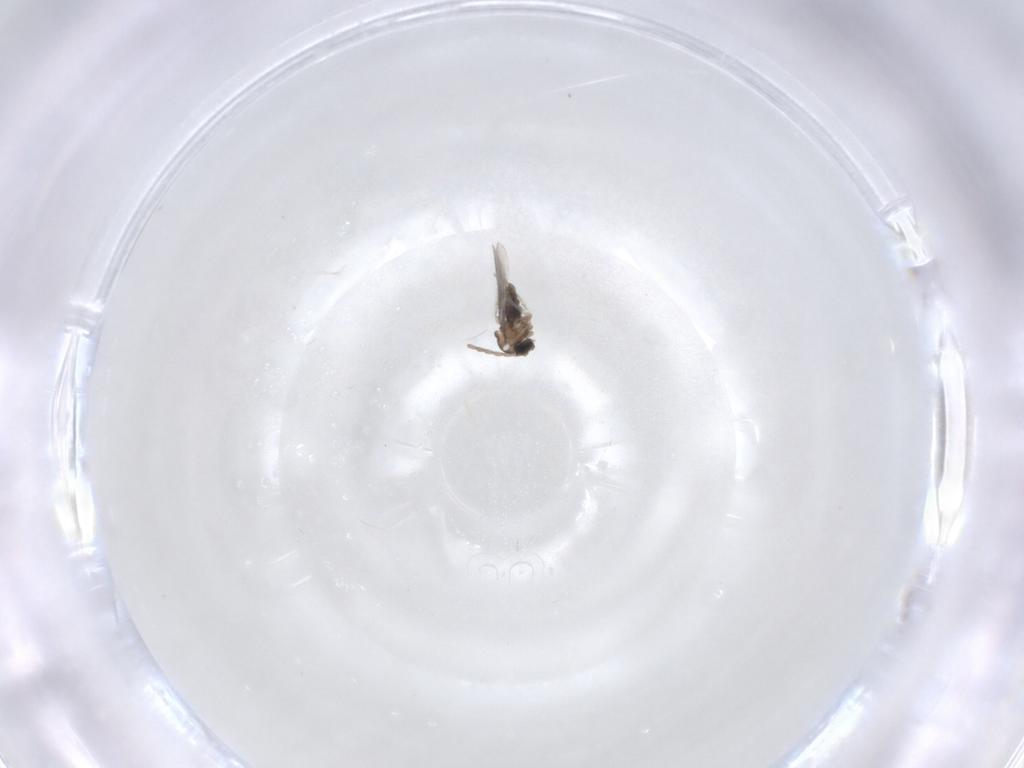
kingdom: Animalia
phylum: Arthropoda
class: Insecta
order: Diptera
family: Cecidomyiidae
